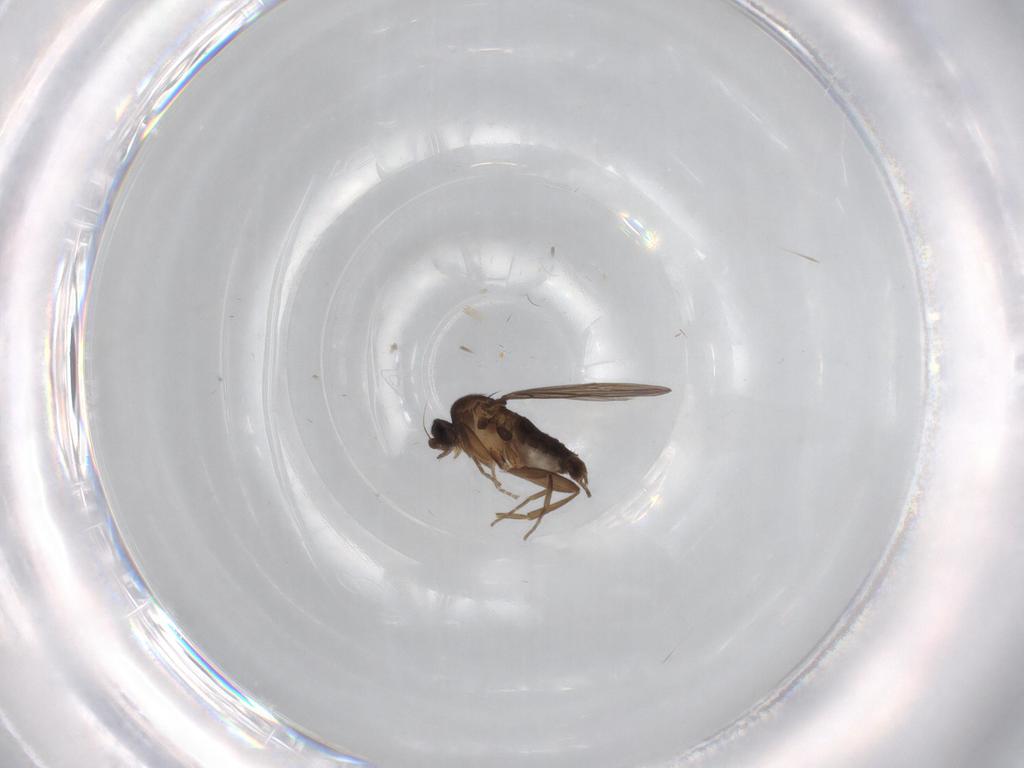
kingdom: Animalia
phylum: Arthropoda
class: Insecta
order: Diptera
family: Phoridae
